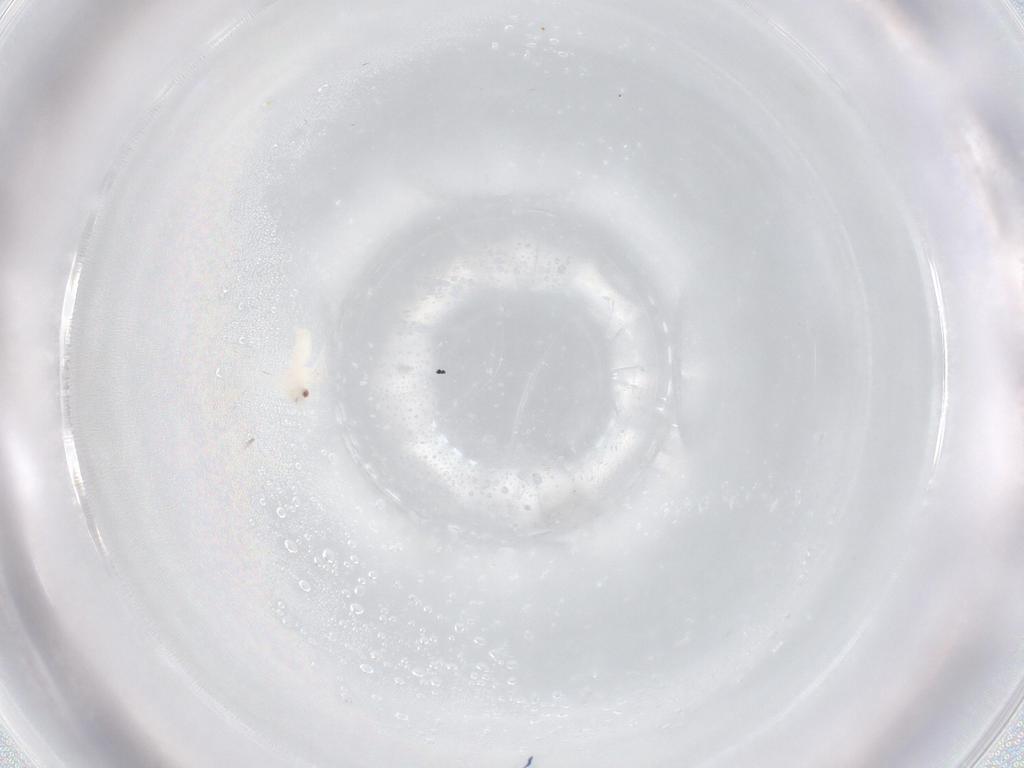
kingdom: Animalia
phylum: Arthropoda
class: Insecta
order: Hemiptera
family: Aleyrodidae
